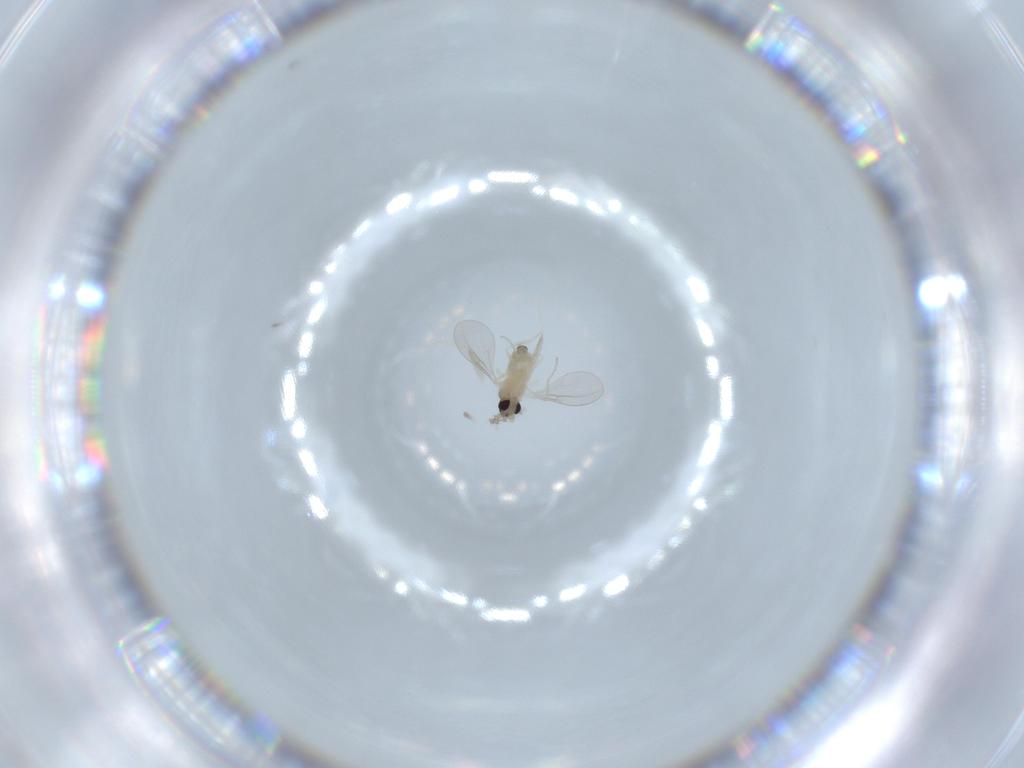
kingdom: Animalia
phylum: Arthropoda
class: Insecta
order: Diptera
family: Cecidomyiidae
